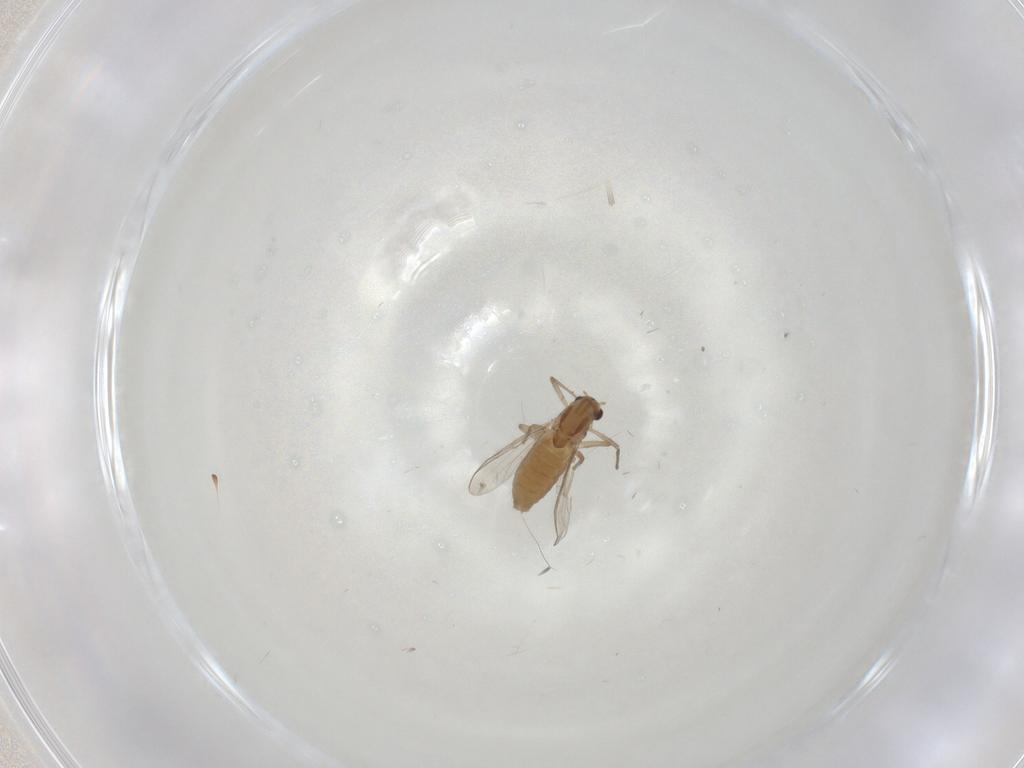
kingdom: Animalia
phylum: Arthropoda
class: Insecta
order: Diptera
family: Chironomidae
